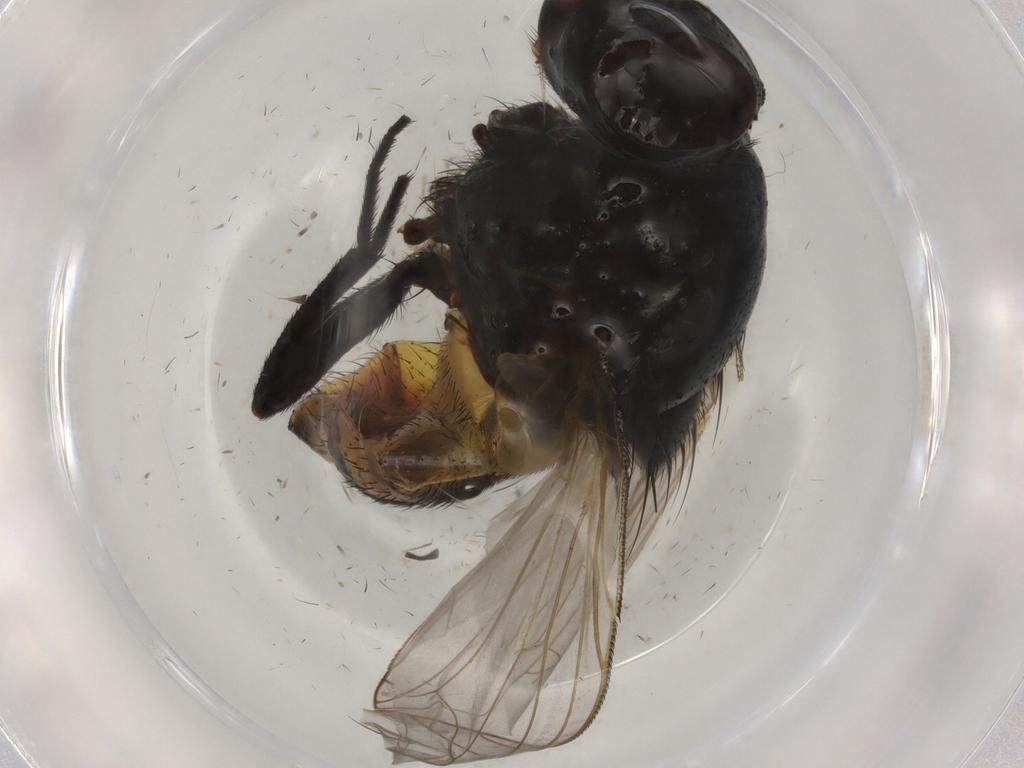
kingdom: Animalia
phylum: Arthropoda
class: Insecta
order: Diptera
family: Muscidae
